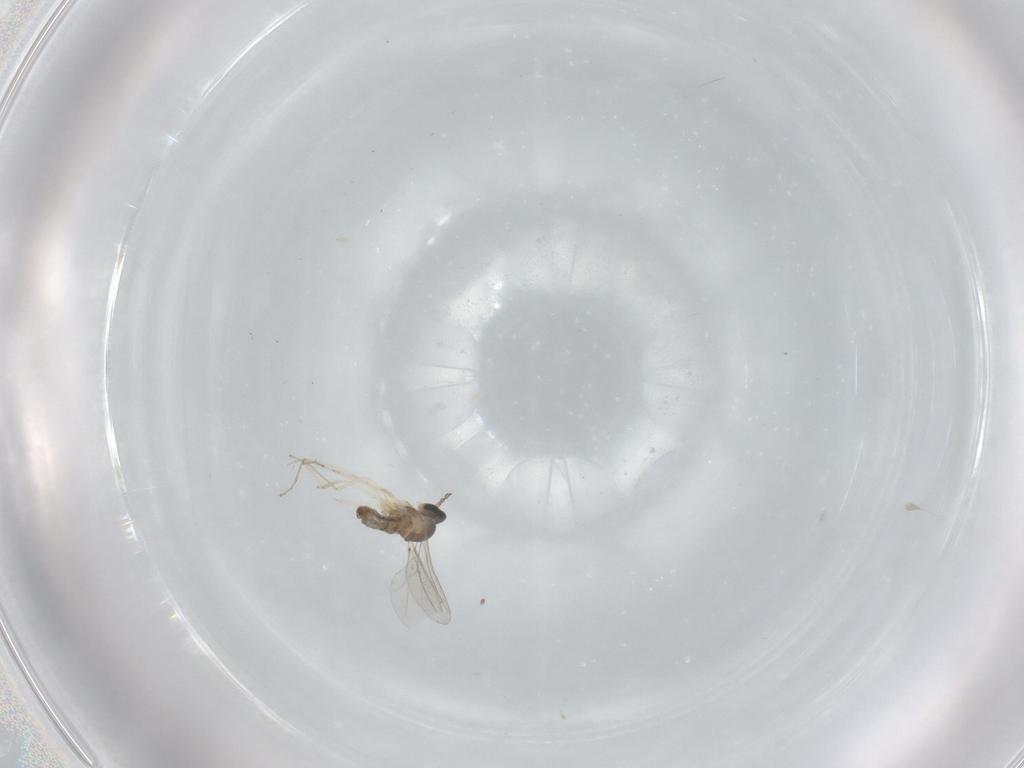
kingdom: Animalia
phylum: Arthropoda
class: Insecta
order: Diptera
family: Cecidomyiidae
